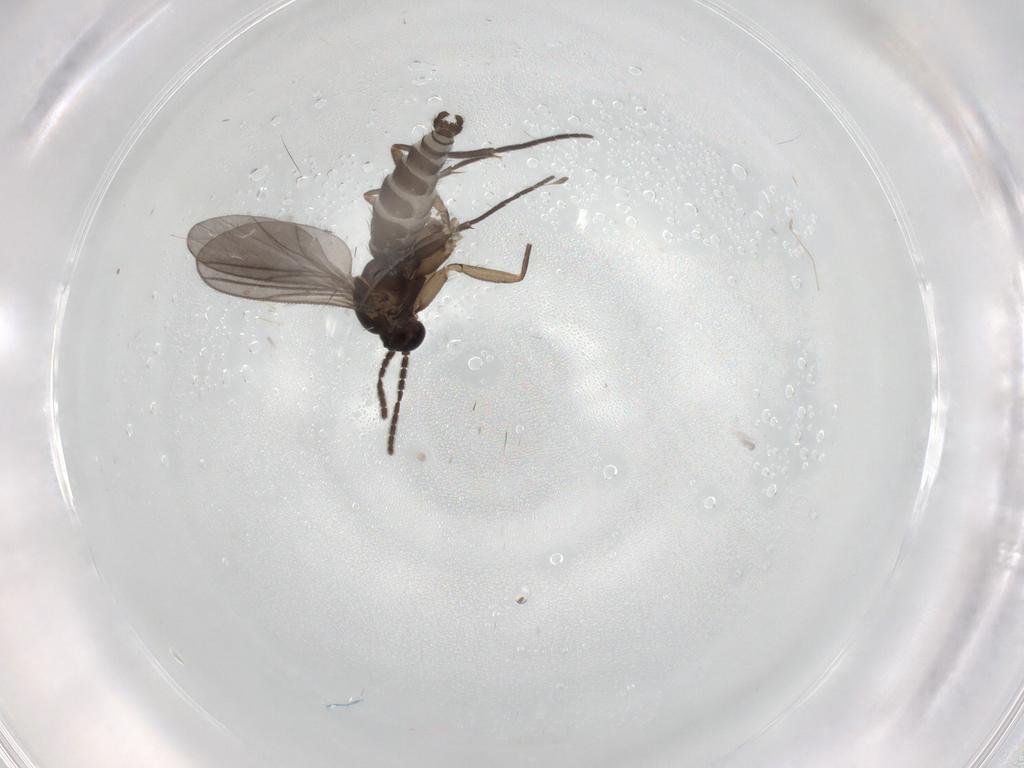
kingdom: Animalia
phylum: Arthropoda
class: Insecta
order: Diptera
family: Sciaridae
